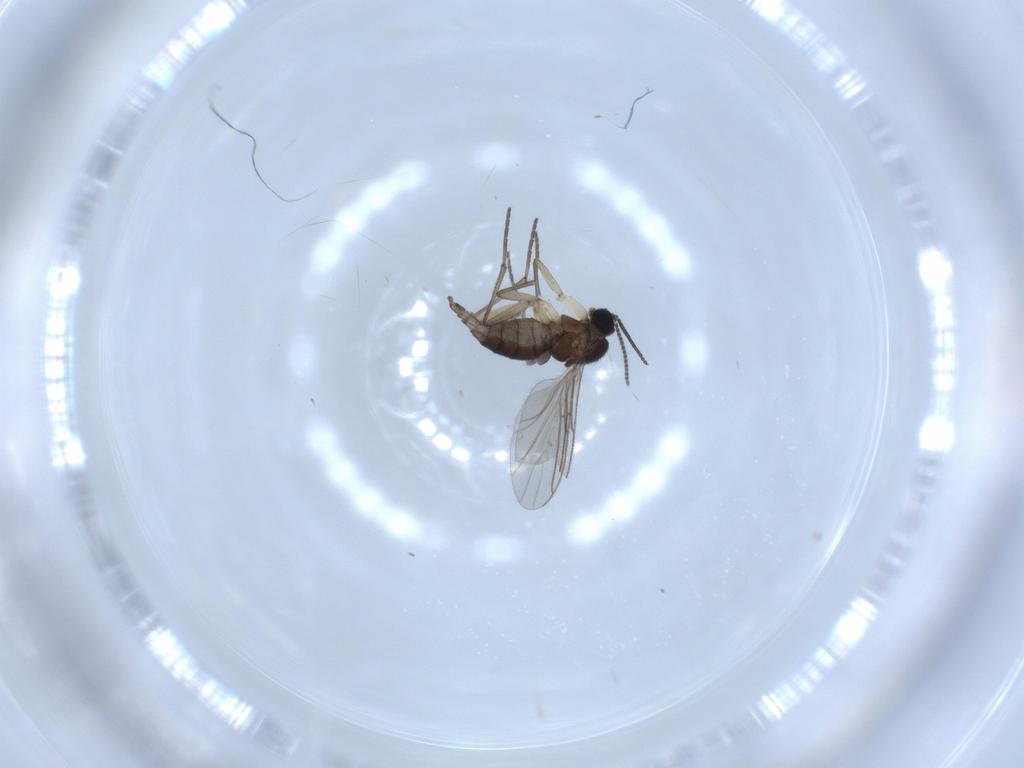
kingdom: Animalia
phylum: Arthropoda
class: Insecta
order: Diptera
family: Sciaridae
